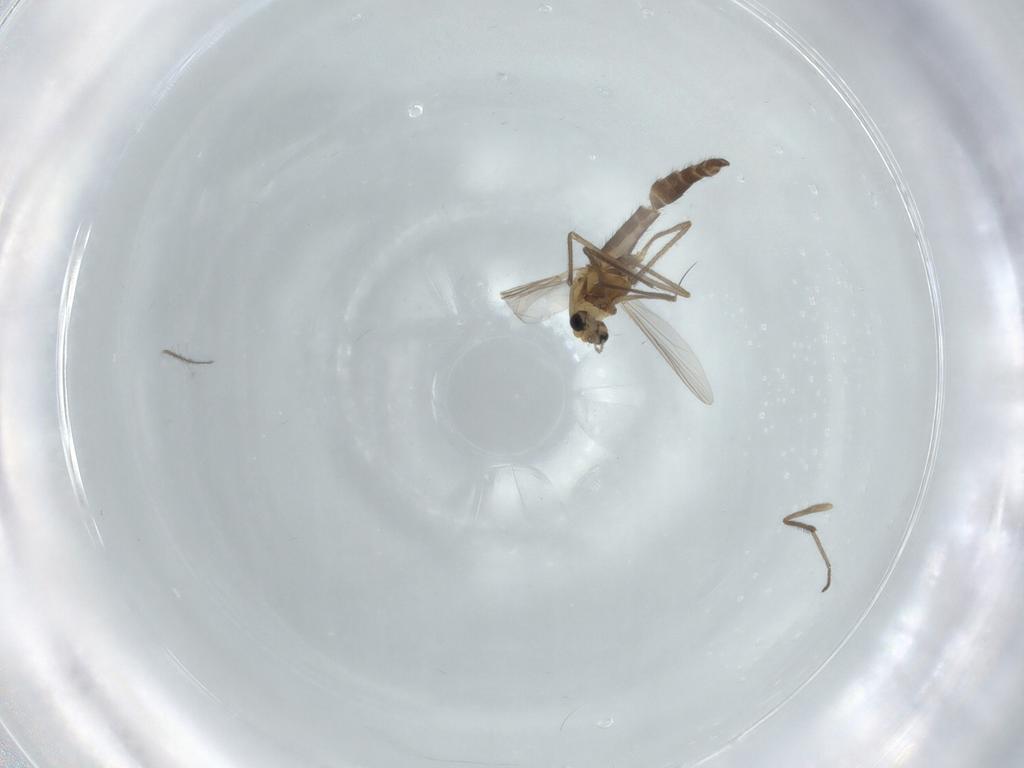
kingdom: Animalia
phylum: Arthropoda
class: Insecta
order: Diptera
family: Chironomidae
